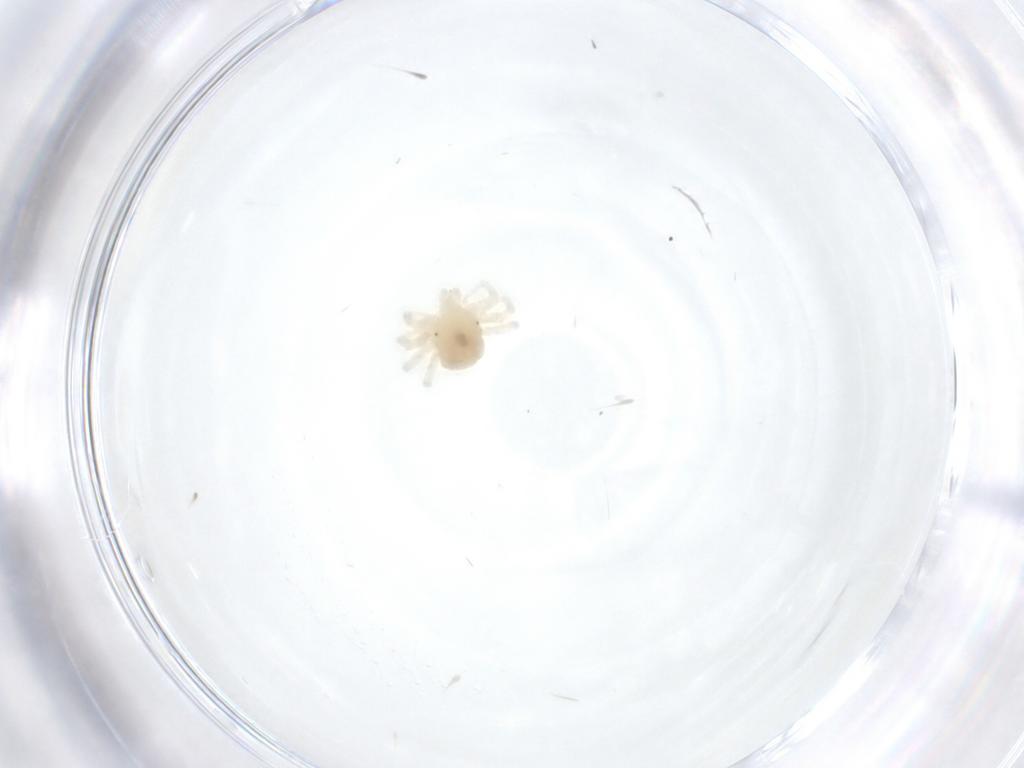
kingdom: Animalia
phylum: Arthropoda
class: Arachnida
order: Trombidiformes
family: Anystidae
